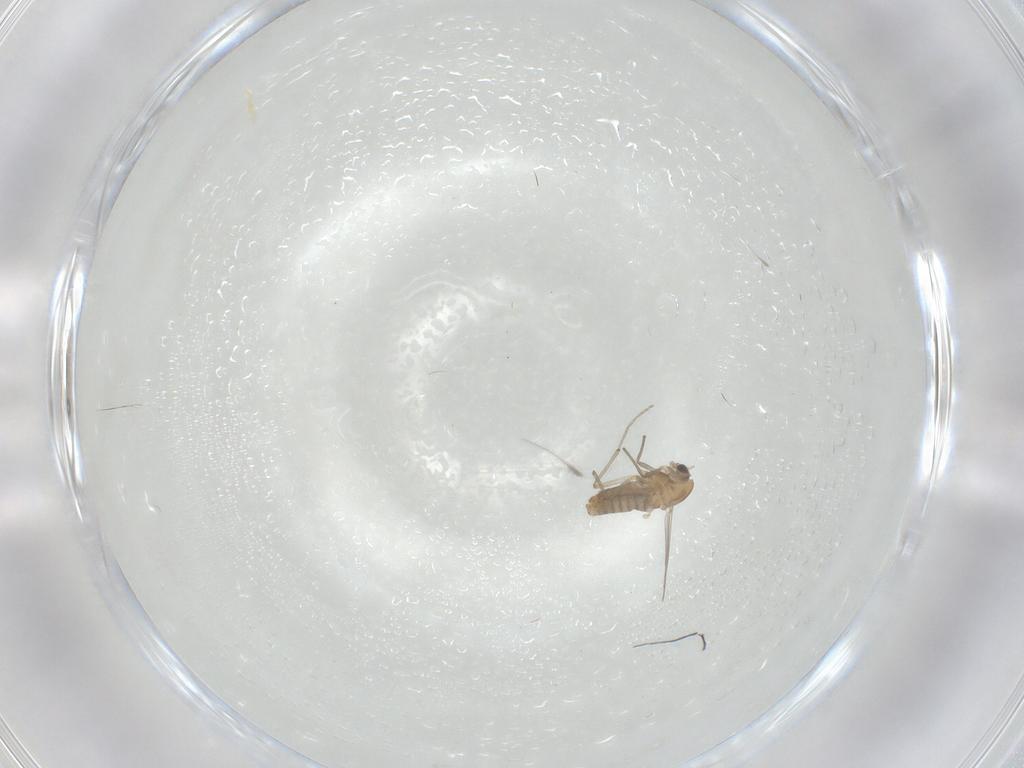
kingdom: Animalia
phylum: Arthropoda
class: Insecta
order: Diptera
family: Chironomidae
